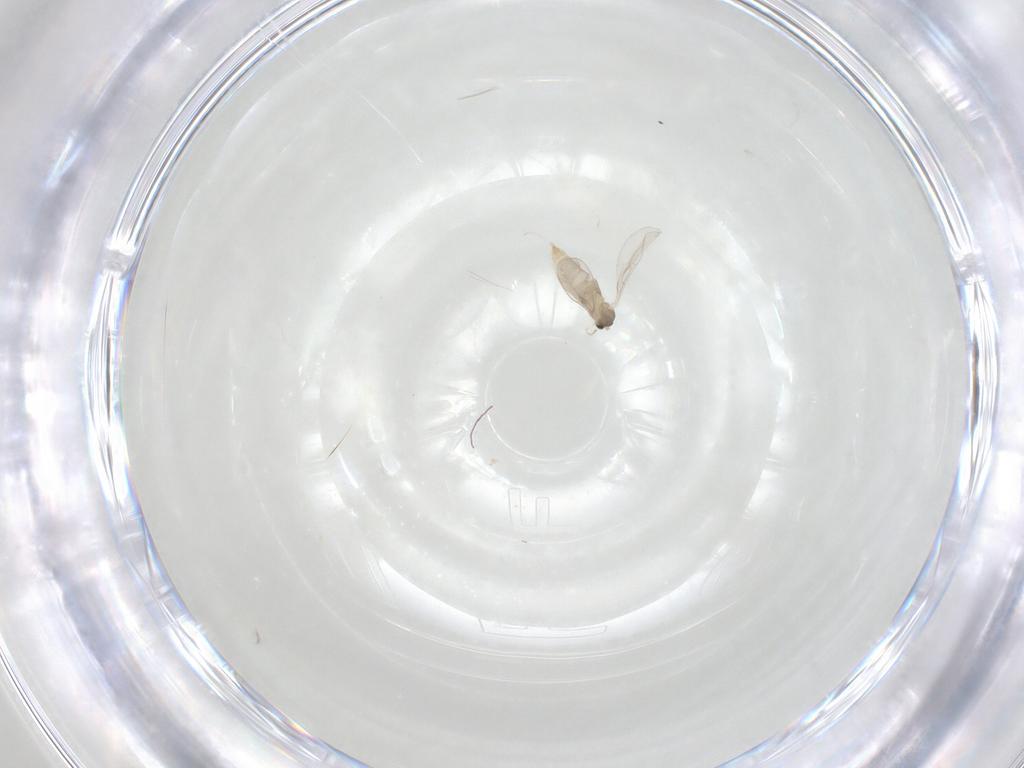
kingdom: Animalia
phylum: Arthropoda
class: Insecta
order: Diptera
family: Cecidomyiidae
